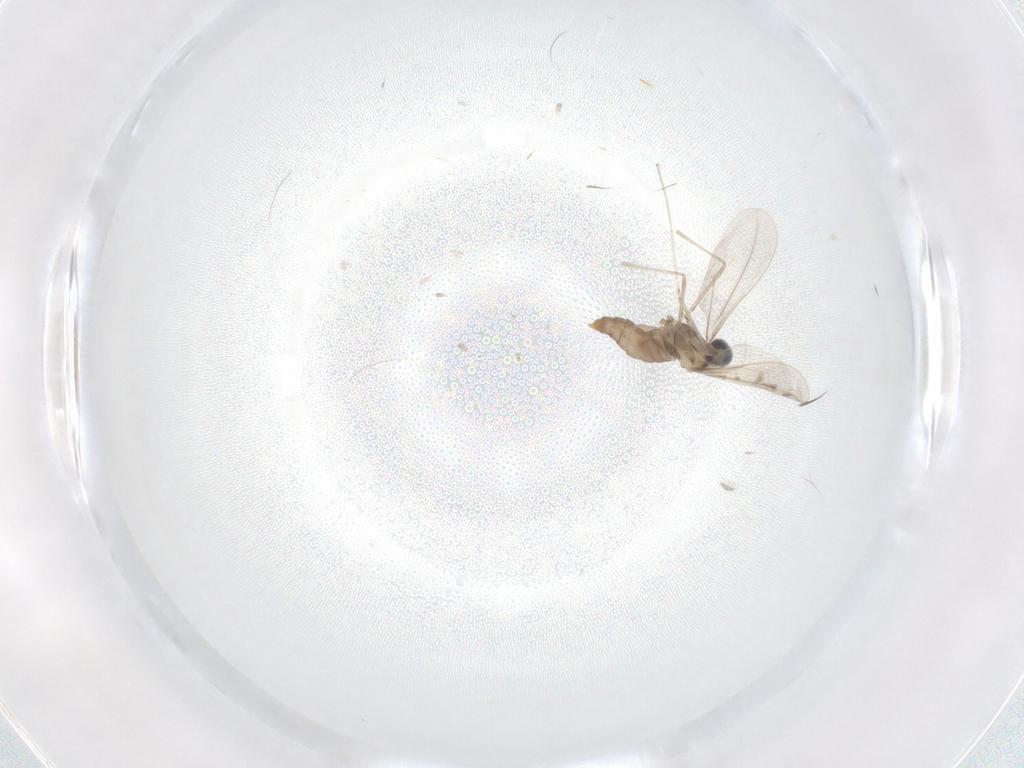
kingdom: Animalia
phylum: Arthropoda
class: Insecta
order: Diptera
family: Cecidomyiidae
